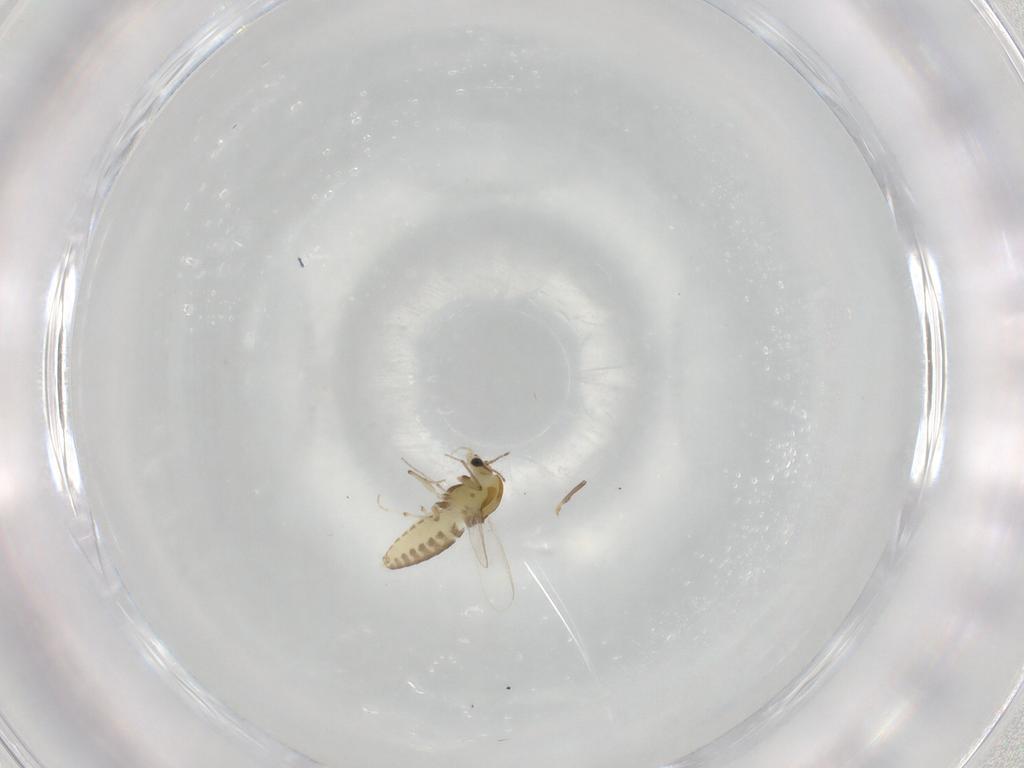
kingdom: Animalia
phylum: Arthropoda
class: Insecta
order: Diptera
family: Chironomidae
